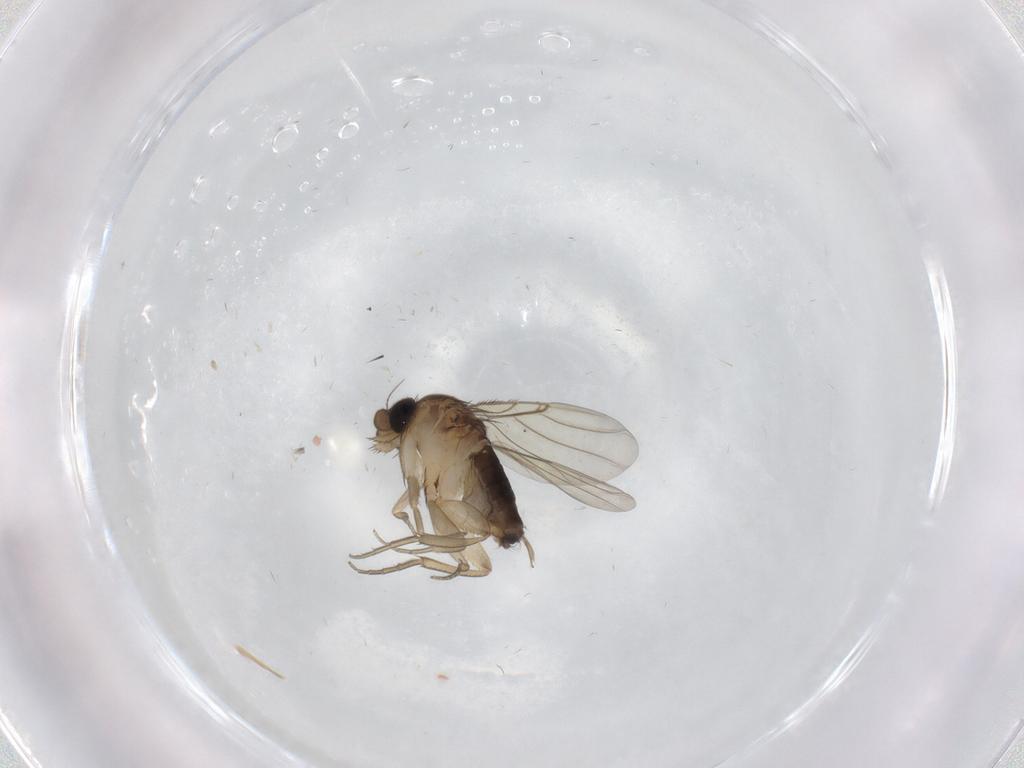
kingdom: Animalia
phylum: Arthropoda
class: Insecta
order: Diptera
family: Phoridae
